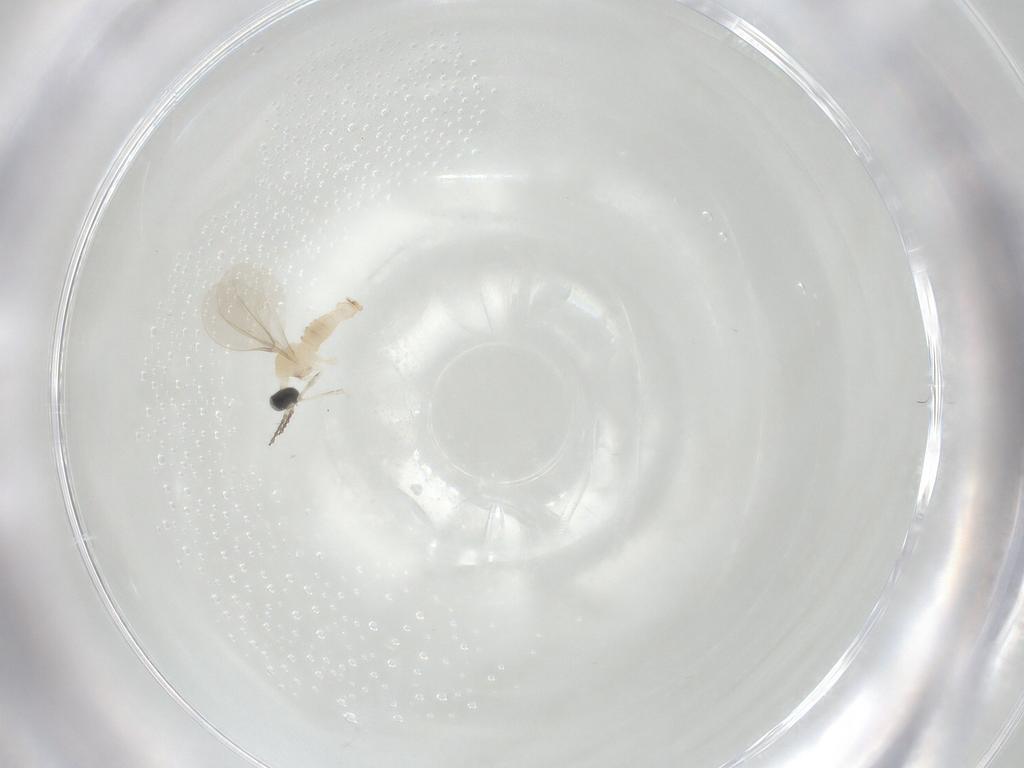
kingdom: Animalia
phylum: Arthropoda
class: Insecta
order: Diptera
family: Cecidomyiidae
